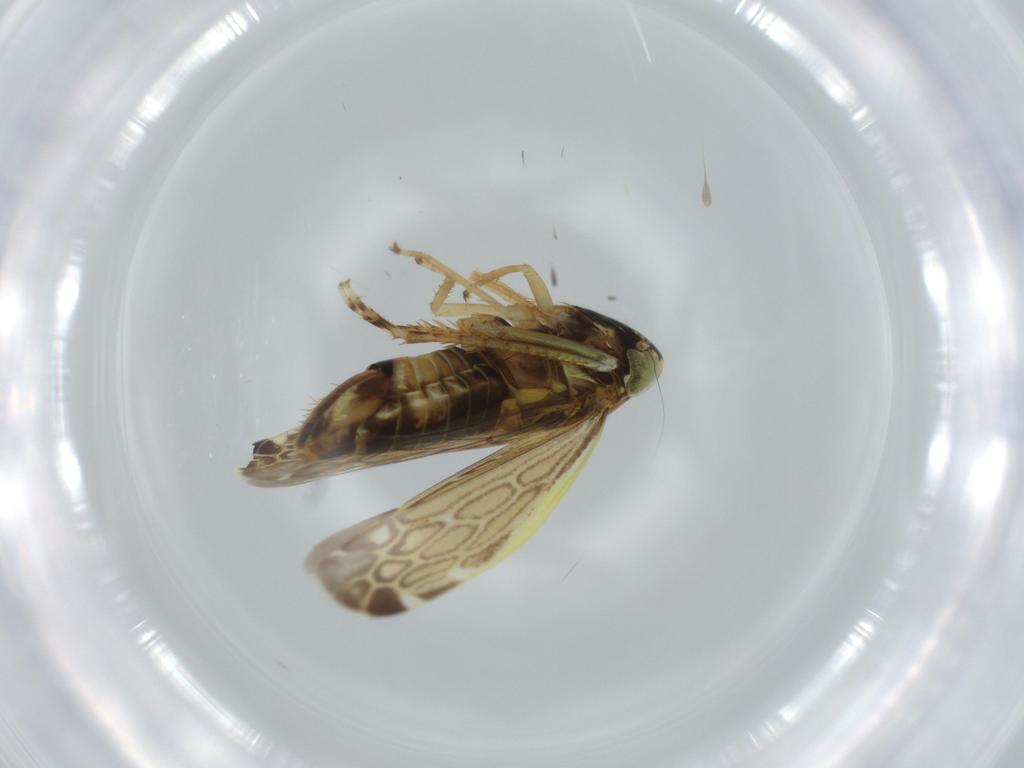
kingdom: Animalia
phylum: Arthropoda
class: Insecta
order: Hemiptera
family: Cicadellidae
